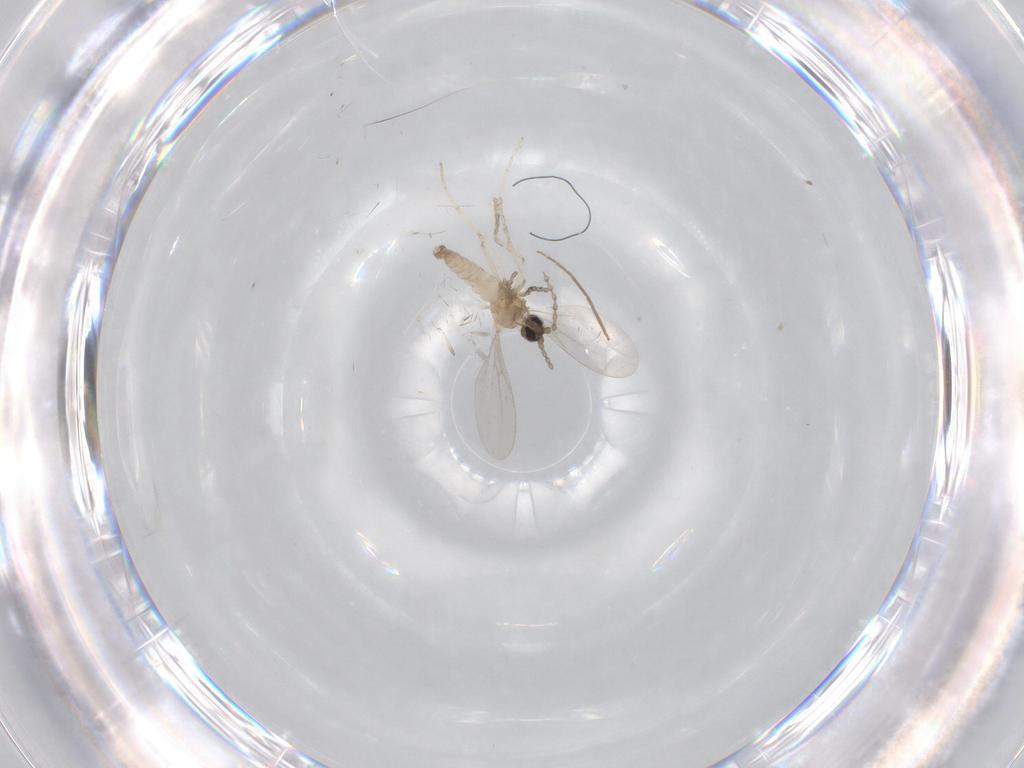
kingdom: Animalia
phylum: Arthropoda
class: Insecta
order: Diptera
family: Cecidomyiidae
